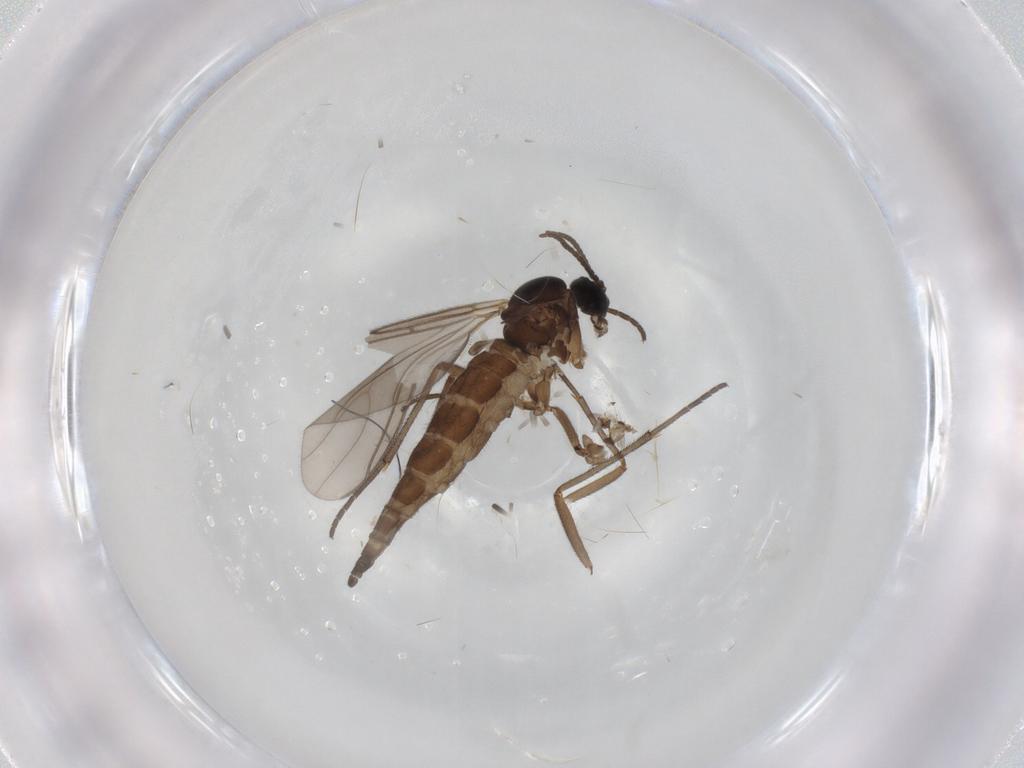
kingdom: Animalia
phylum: Arthropoda
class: Insecta
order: Diptera
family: Sciaridae
